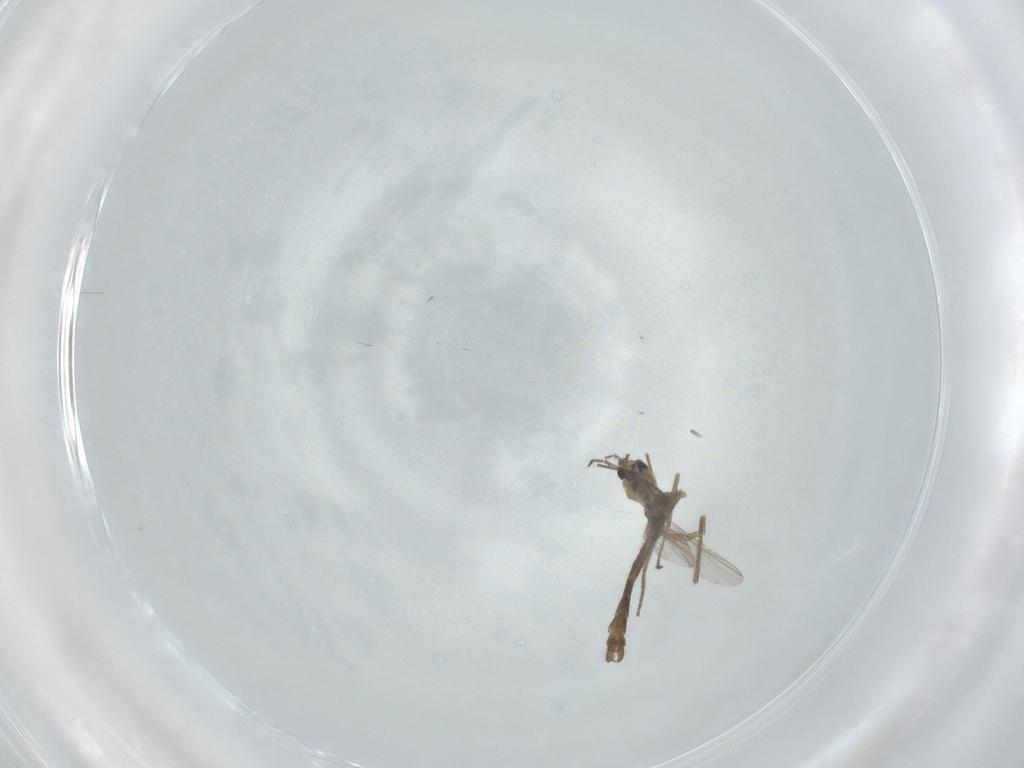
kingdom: Animalia
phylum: Arthropoda
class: Insecta
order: Diptera
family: Chironomidae
